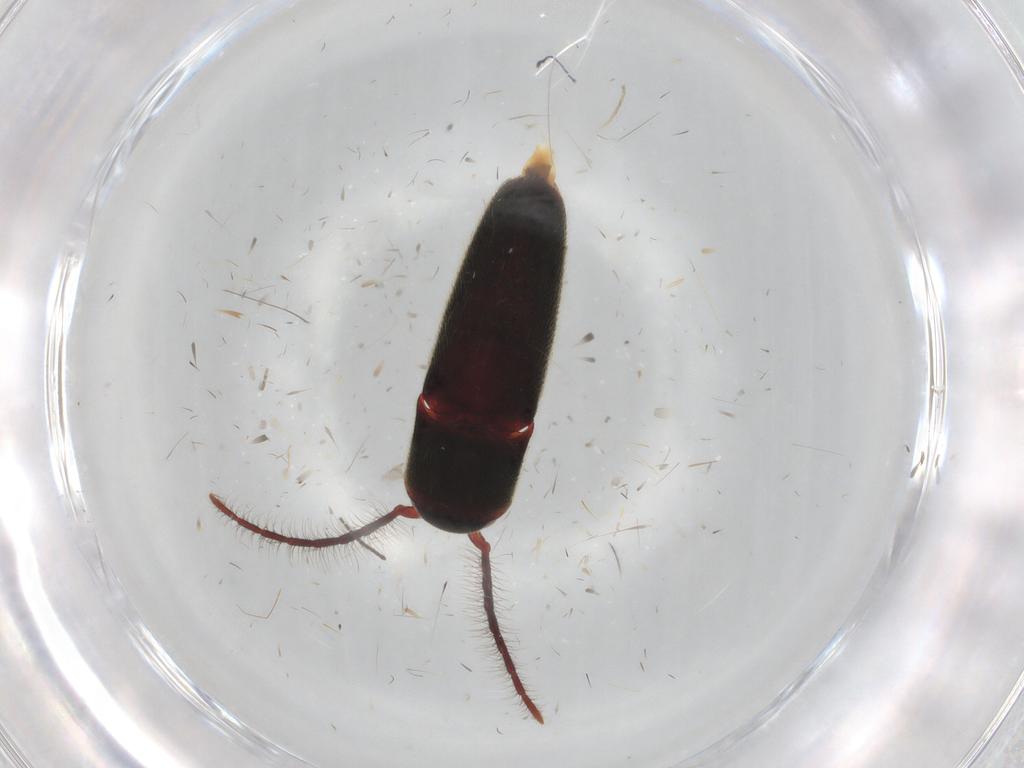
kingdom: Animalia
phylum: Arthropoda
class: Insecta
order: Coleoptera
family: Eucnemidae
